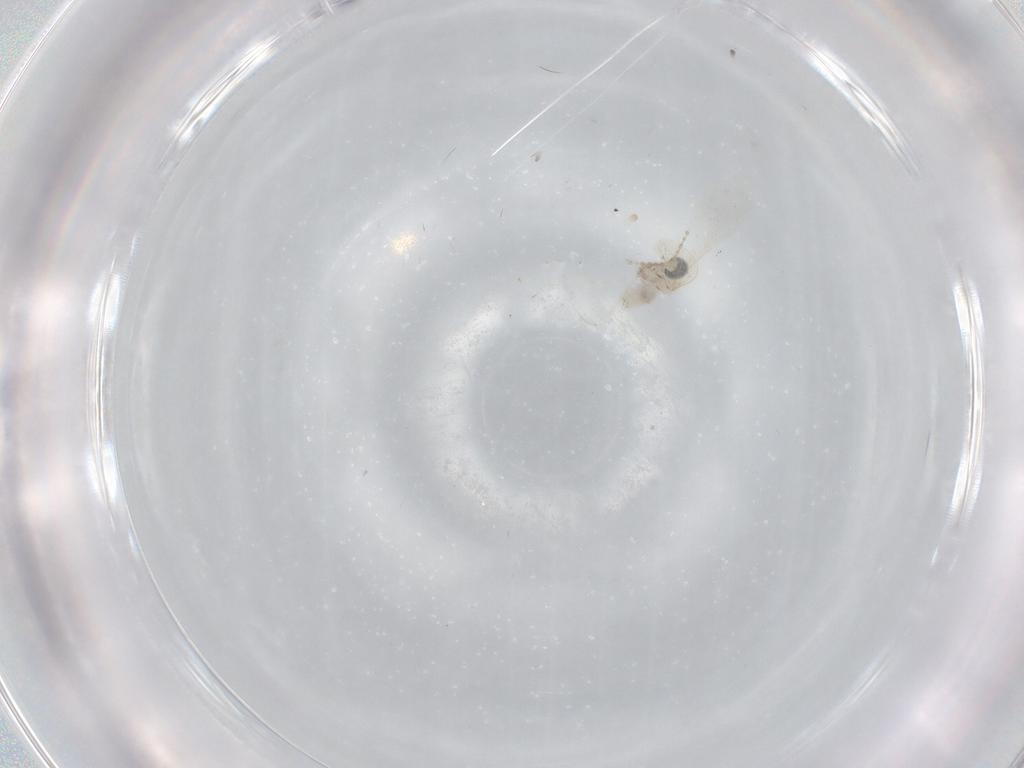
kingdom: Animalia
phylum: Arthropoda
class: Insecta
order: Diptera
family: Cecidomyiidae
